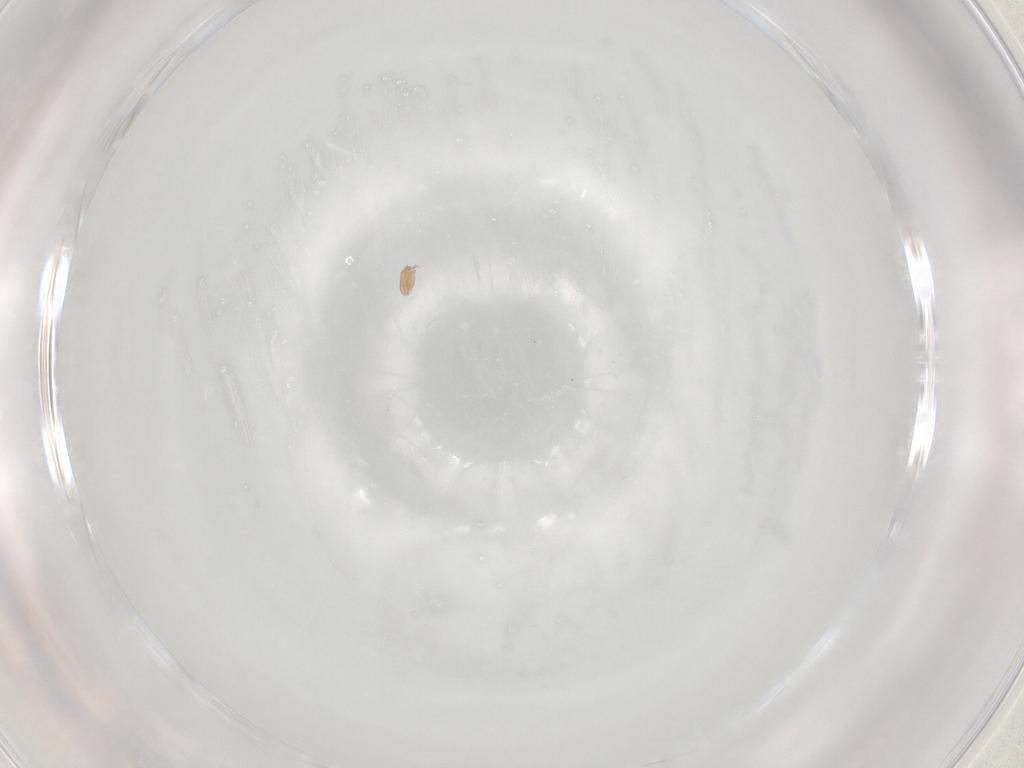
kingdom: Animalia
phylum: Arthropoda
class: Arachnida
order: Sarcoptiformes
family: Hemisarcoptidae
